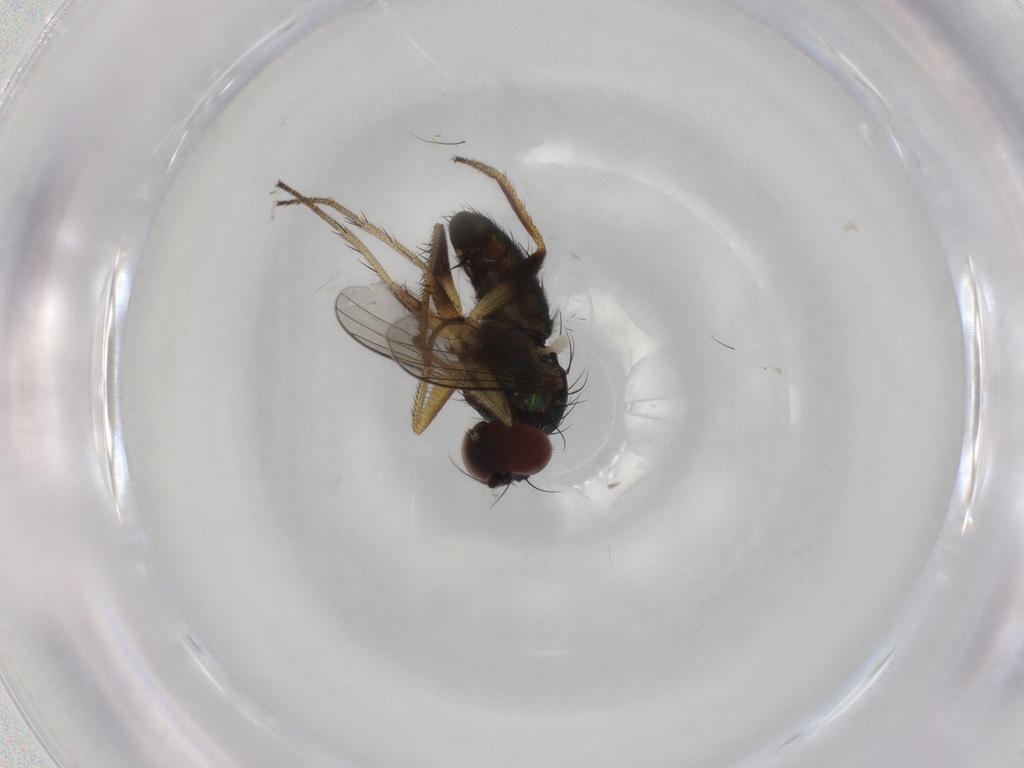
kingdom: Animalia
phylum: Arthropoda
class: Insecta
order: Diptera
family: Dolichopodidae
